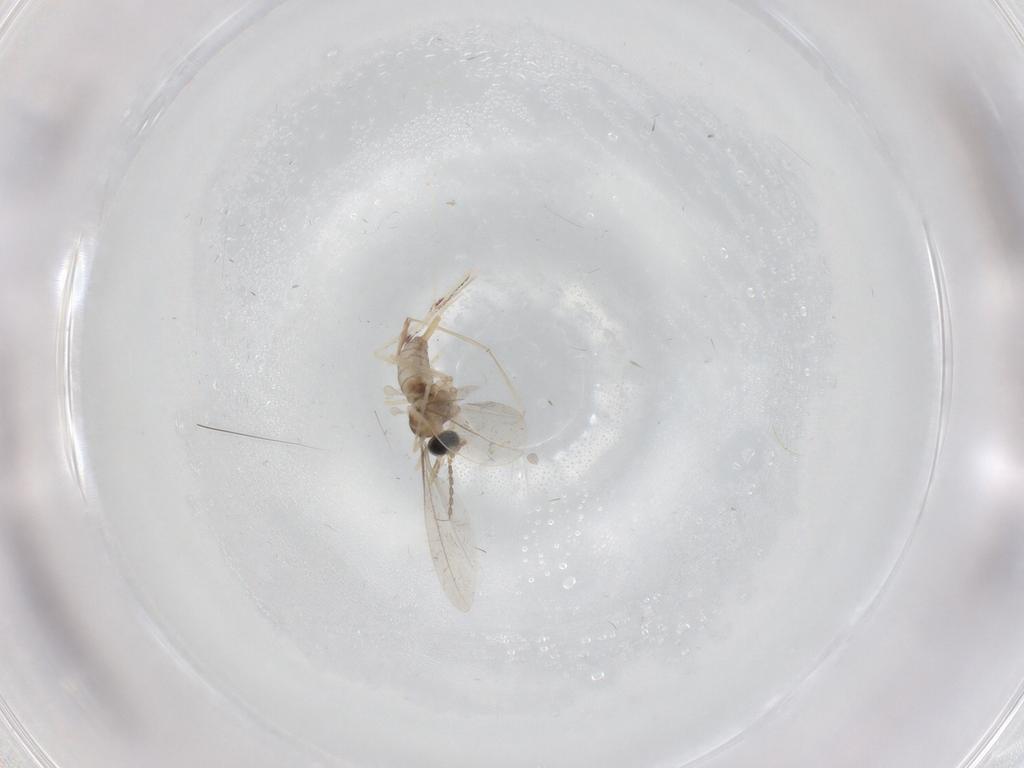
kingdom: Animalia
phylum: Arthropoda
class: Insecta
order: Diptera
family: Cecidomyiidae
